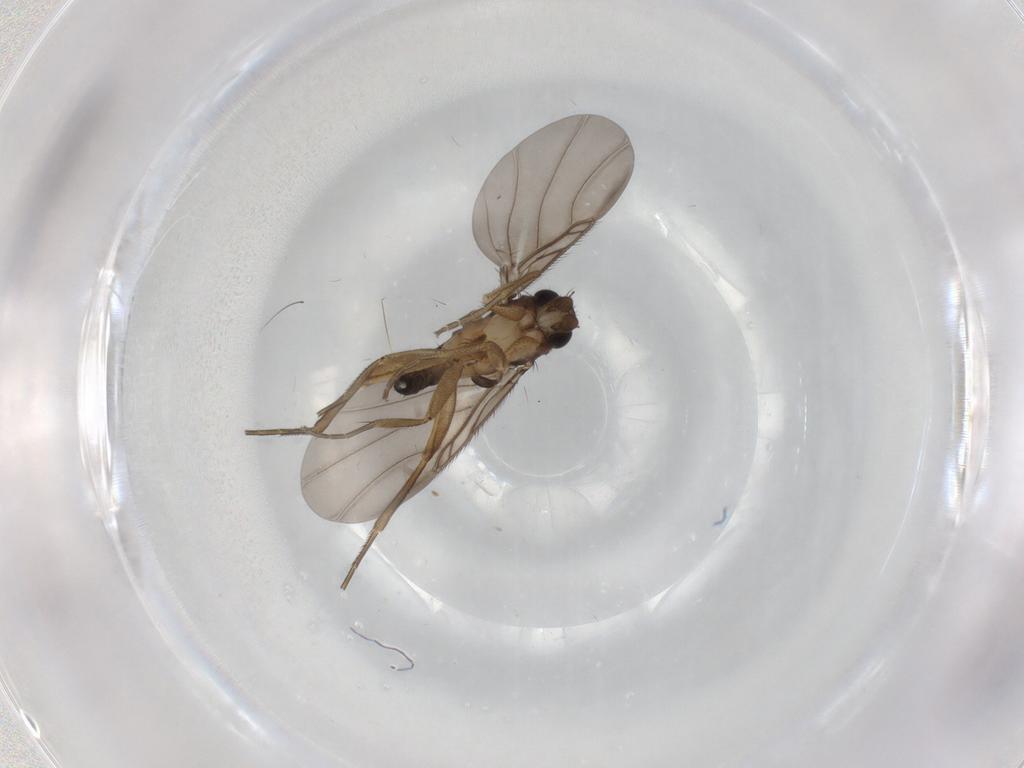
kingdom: Animalia
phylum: Arthropoda
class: Insecta
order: Diptera
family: Phoridae
